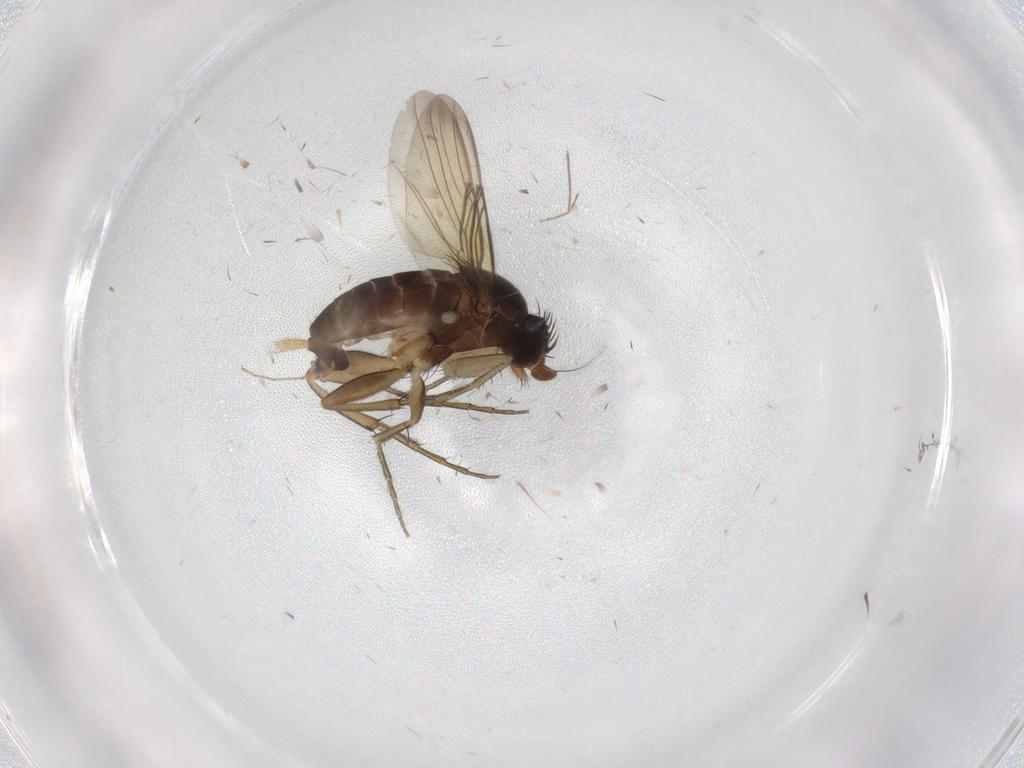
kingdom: Animalia
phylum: Arthropoda
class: Insecta
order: Diptera
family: Phoridae
